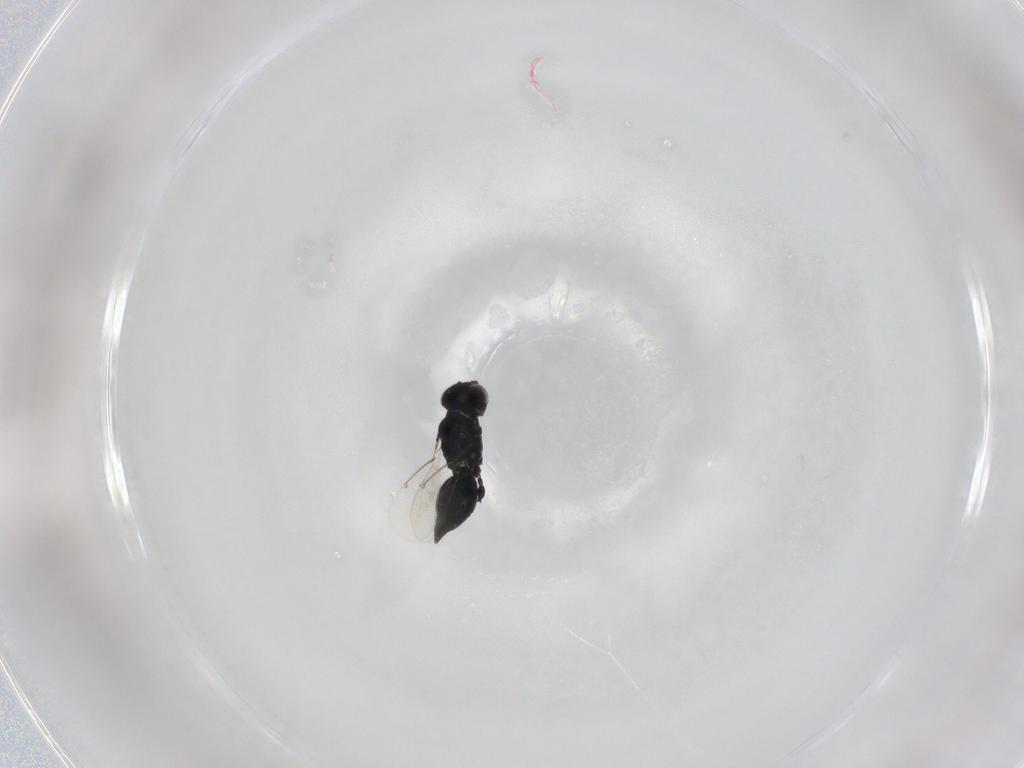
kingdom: Animalia
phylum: Arthropoda
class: Insecta
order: Hymenoptera
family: Eulophidae
